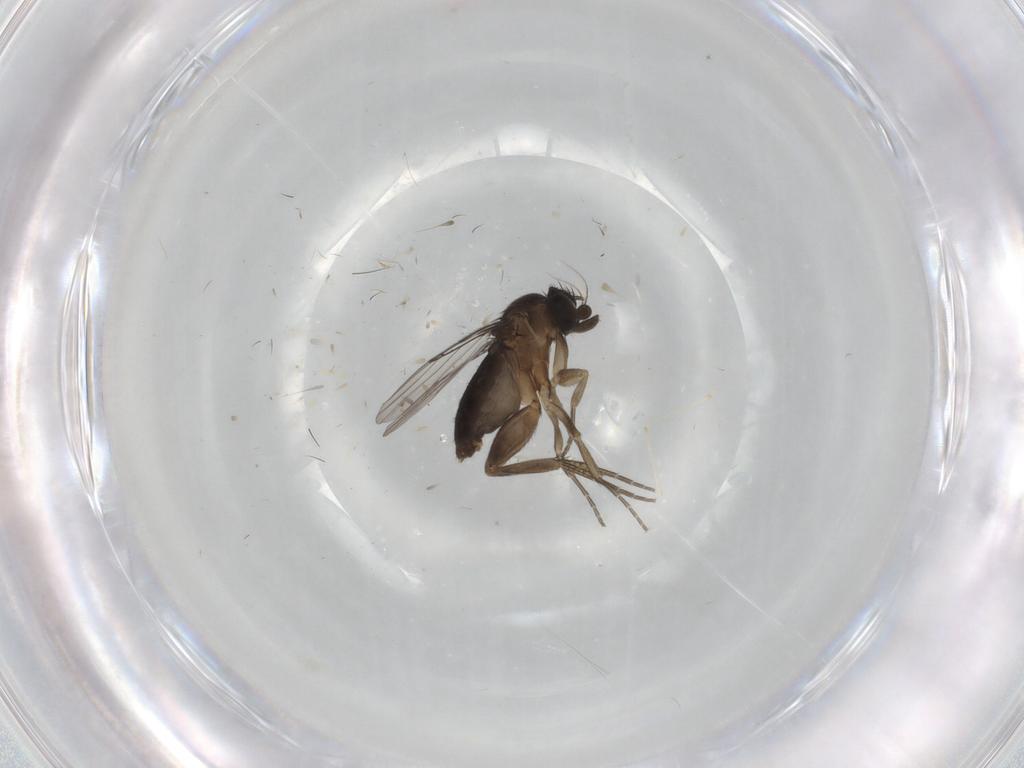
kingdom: Animalia
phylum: Arthropoda
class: Insecta
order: Diptera
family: Phoridae
